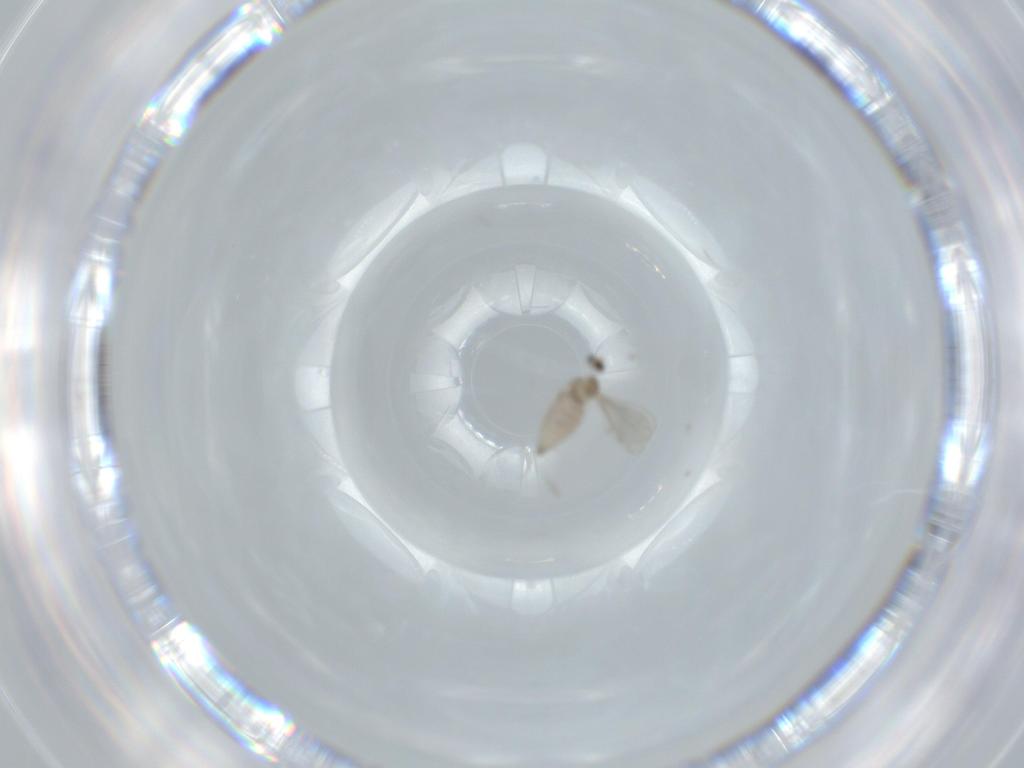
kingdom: Animalia
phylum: Arthropoda
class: Insecta
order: Diptera
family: Cecidomyiidae
